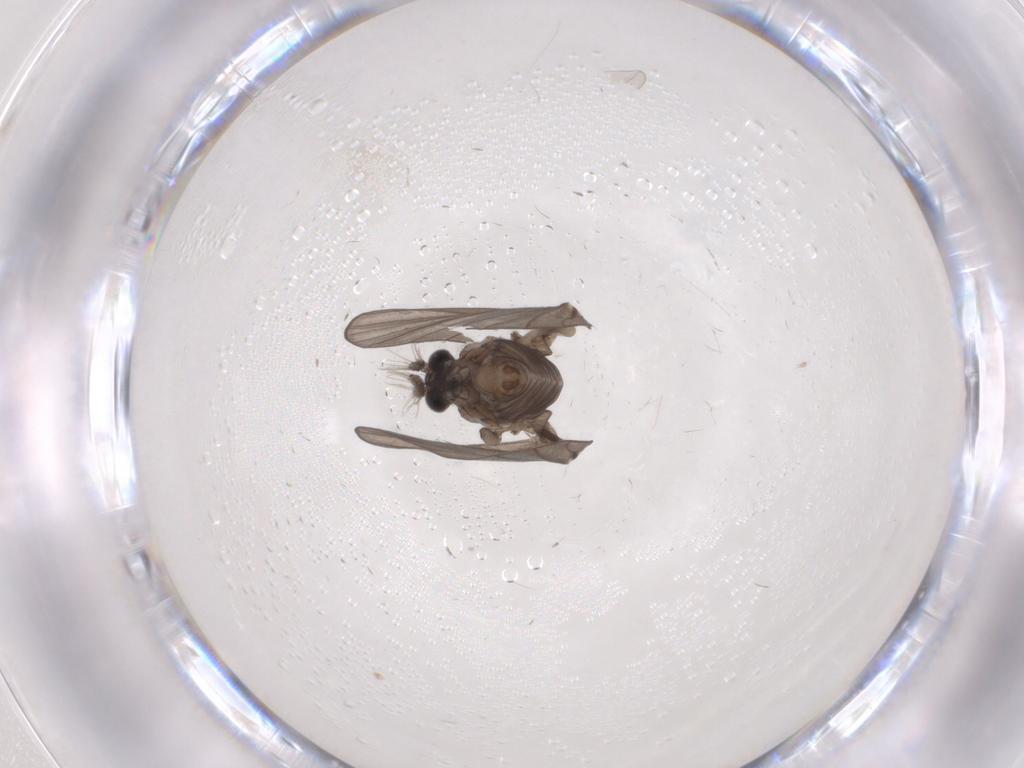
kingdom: Animalia
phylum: Arthropoda
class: Insecta
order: Diptera
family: Psychodidae
